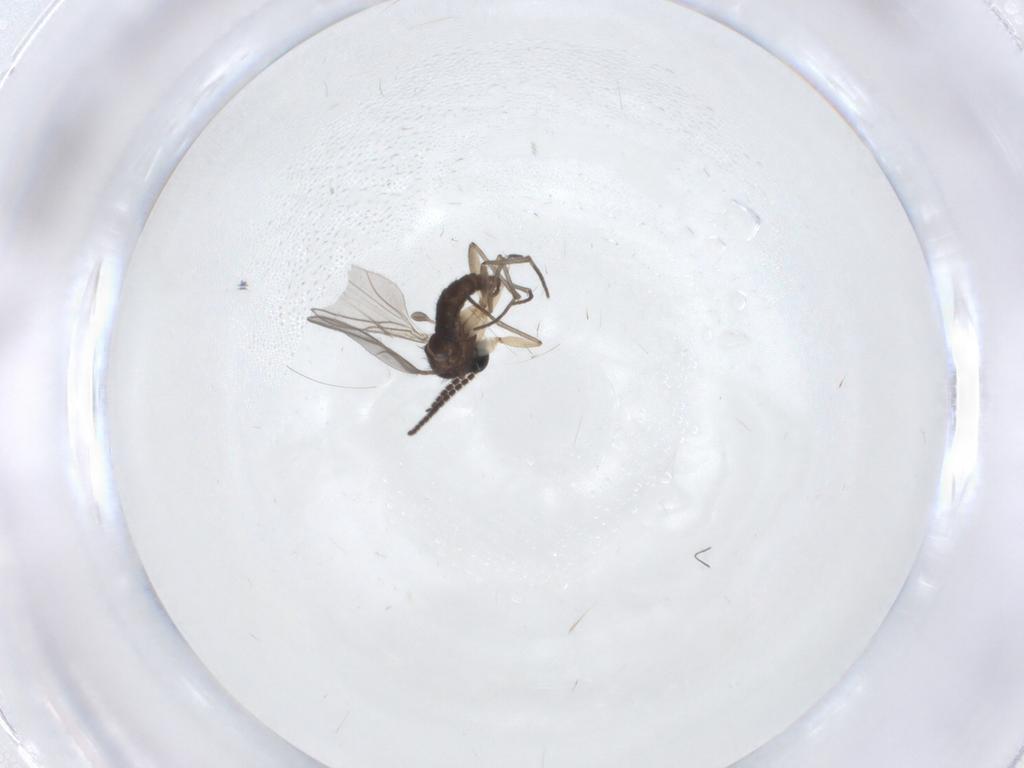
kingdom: Animalia
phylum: Arthropoda
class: Insecta
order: Diptera
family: Sciaridae
